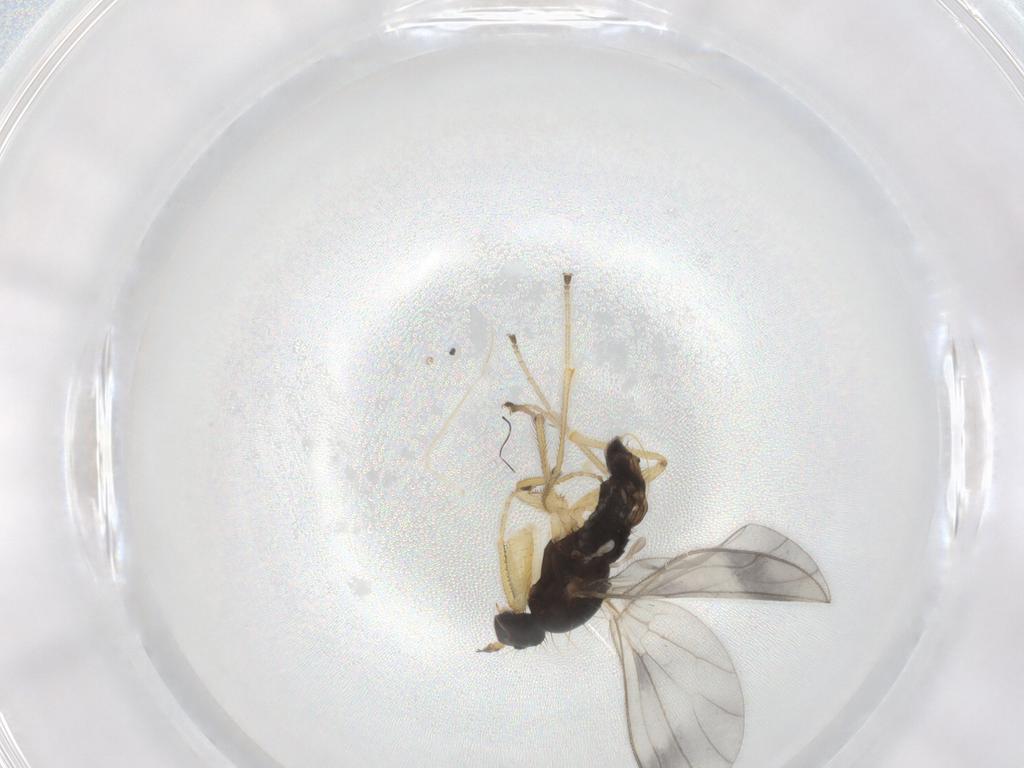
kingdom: Animalia
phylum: Arthropoda
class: Insecta
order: Diptera
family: Empididae
